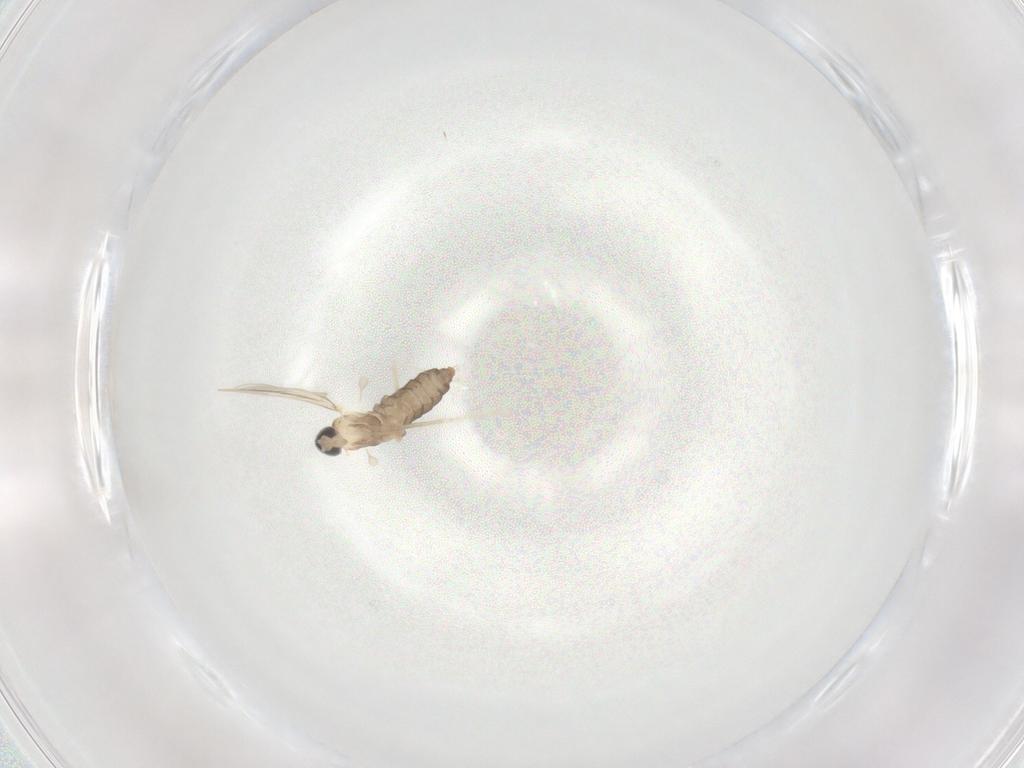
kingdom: Animalia
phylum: Arthropoda
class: Insecta
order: Diptera
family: Cecidomyiidae
